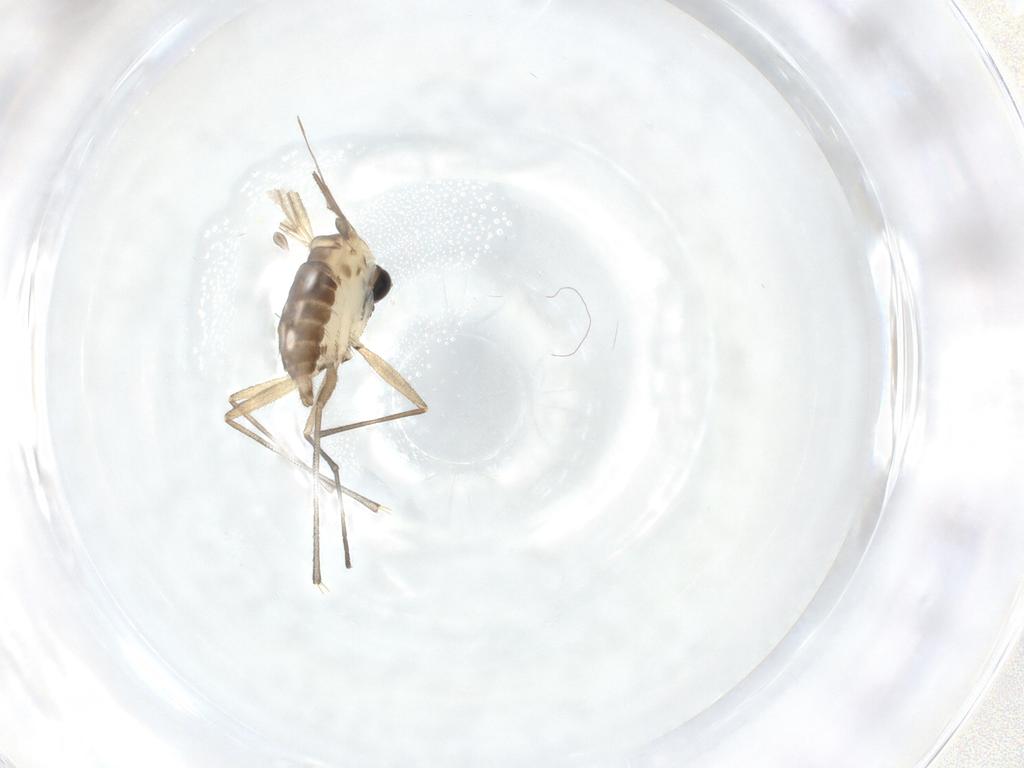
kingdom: Animalia
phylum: Arthropoda
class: Insecta
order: Diptera
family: Sciaridae
